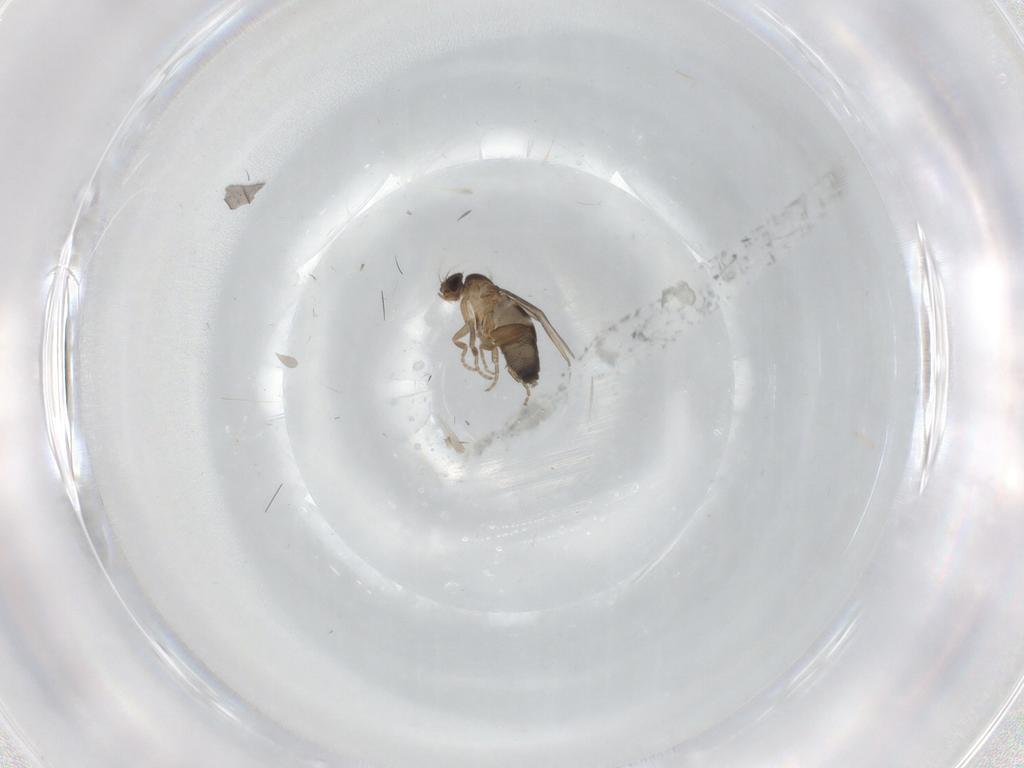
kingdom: Animalia
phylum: Arthropoda
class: Insecta
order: Diptera
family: Phoridae
